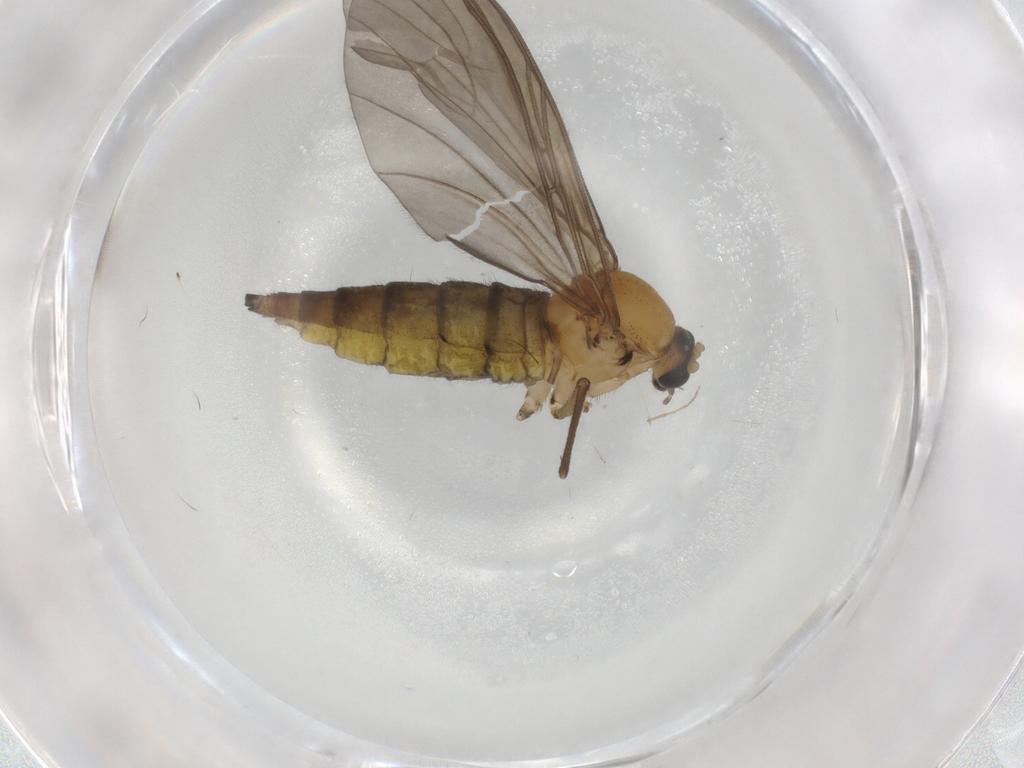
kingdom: Animalia
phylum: Arthropoda
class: Insecta
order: Diptera
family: Sciaridae
